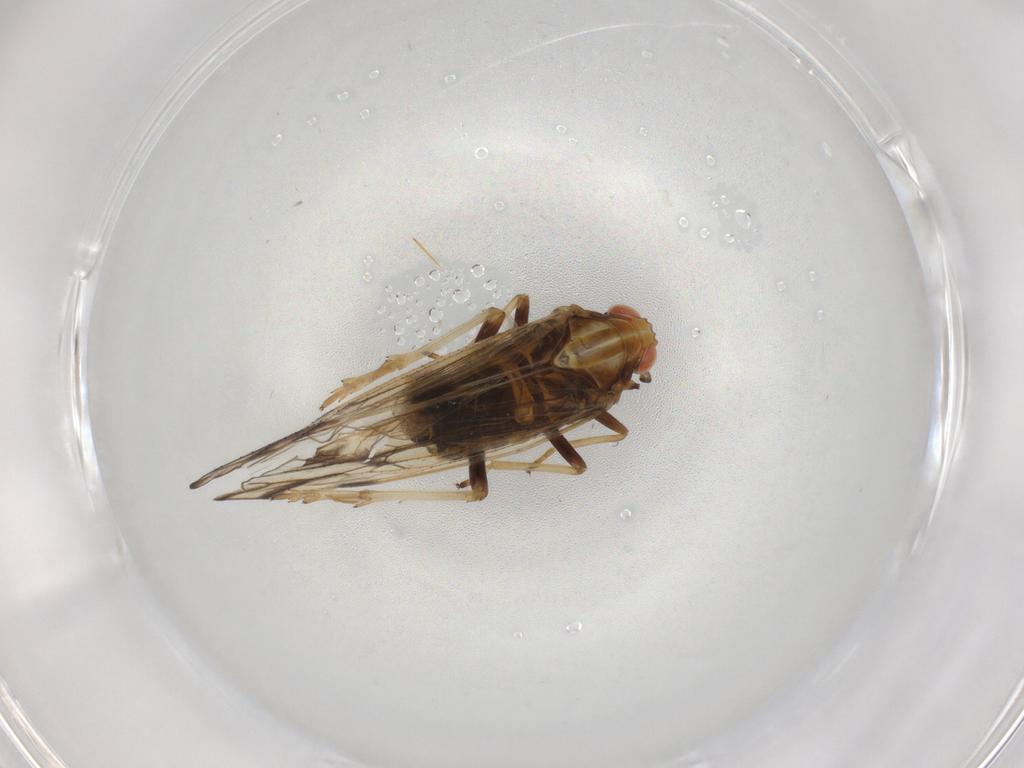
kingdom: Animalia
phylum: Arthropoda
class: Insecta
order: Hemiptera
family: Delphacidae
